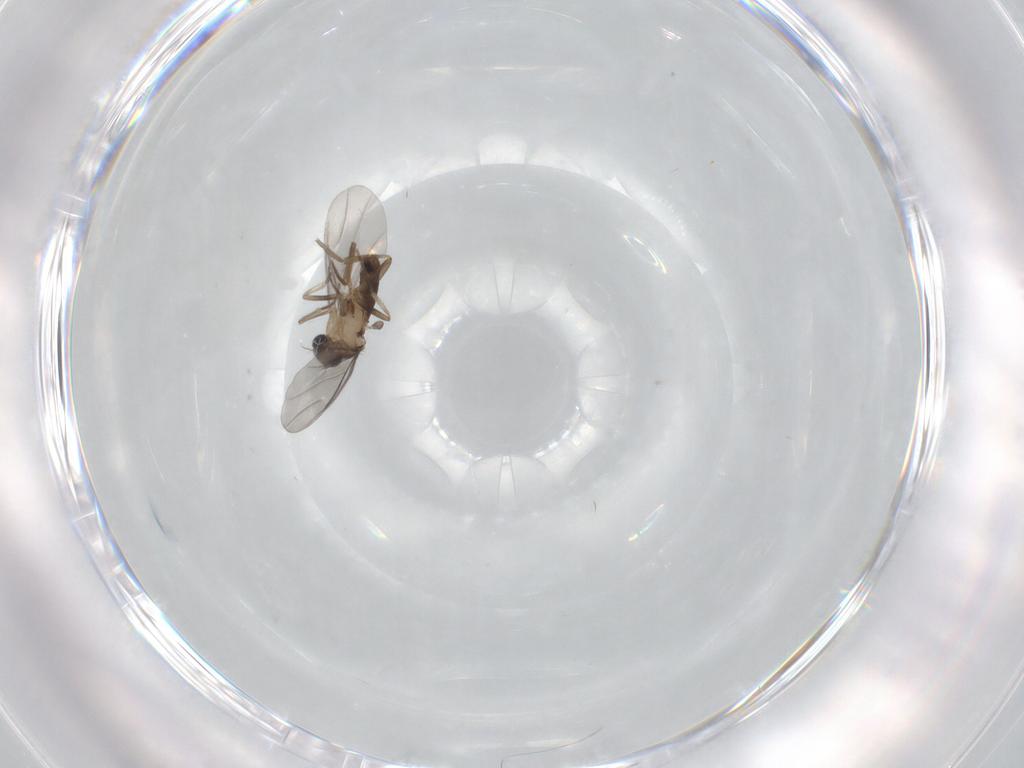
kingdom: Animalia
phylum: Arthropoda
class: Insecta
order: Diptera
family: Phoridae
